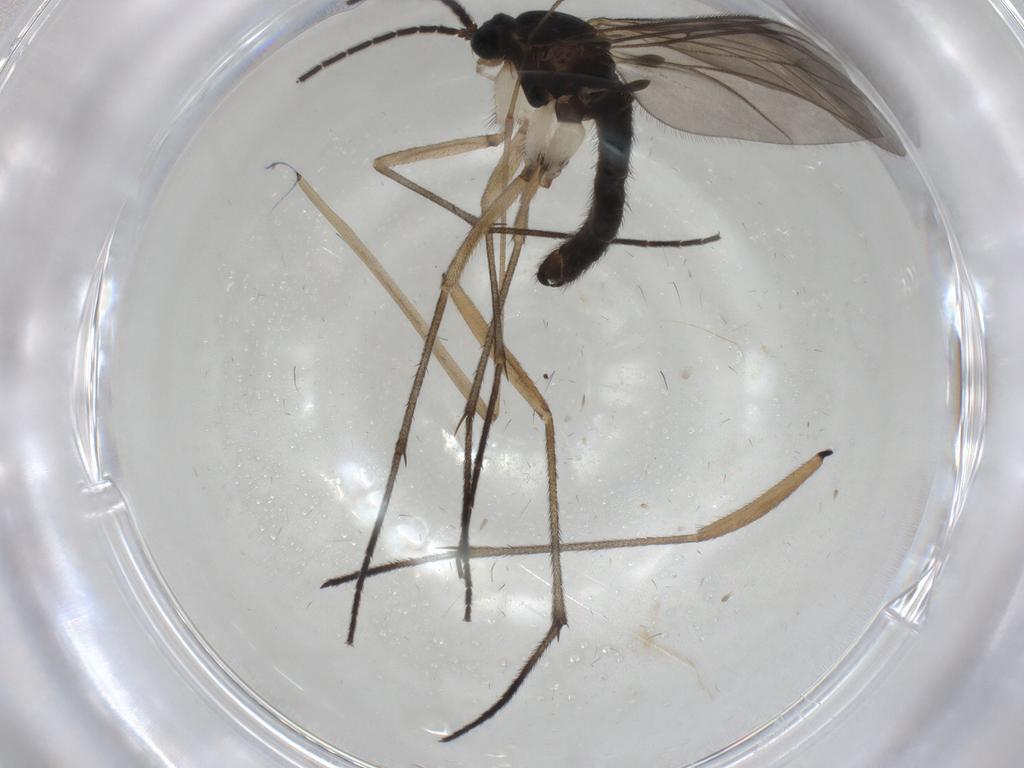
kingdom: Animalia
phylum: Arthropoda
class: Insecta
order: Diptera
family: Sciaridae
